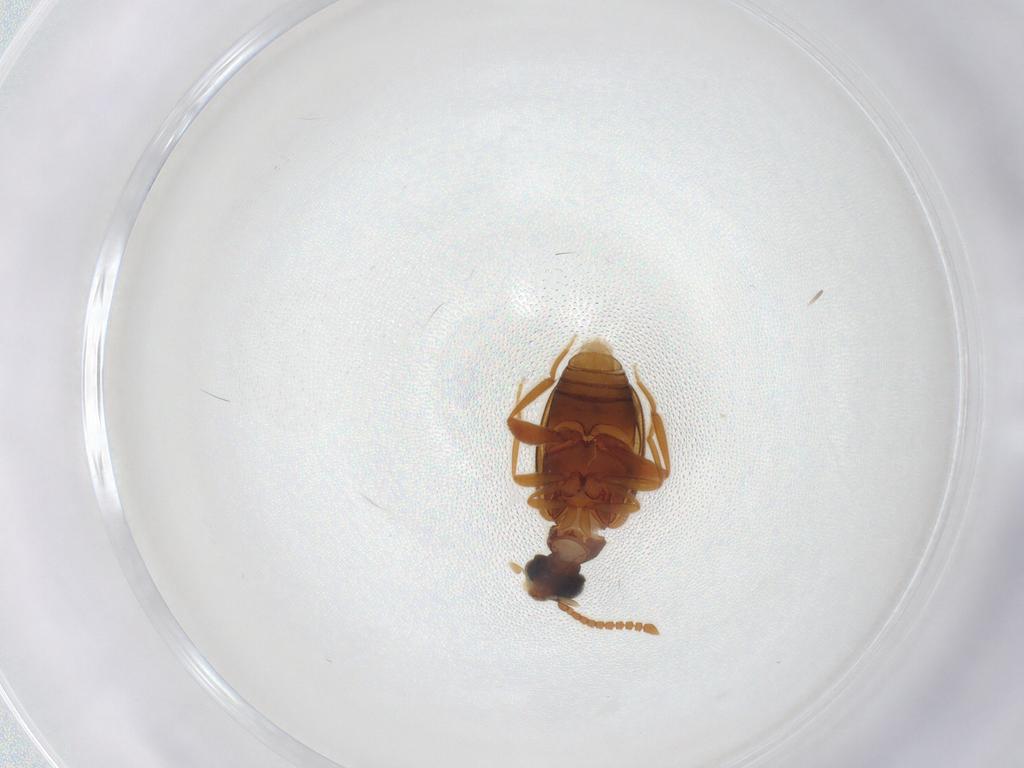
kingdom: Animalia
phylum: Arthropoda
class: Insecta
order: Coleoptera
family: Aderidae
